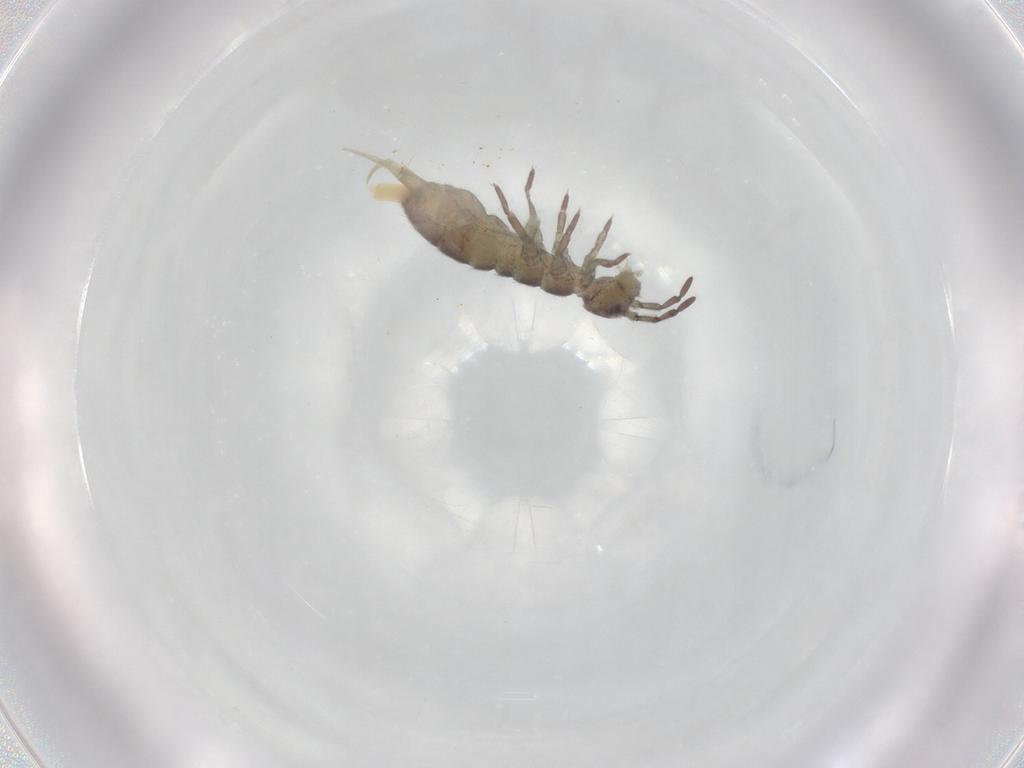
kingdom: Animalia
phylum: Arthropoda
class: Collembola
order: Entomobryomorpha
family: Isotomidae
